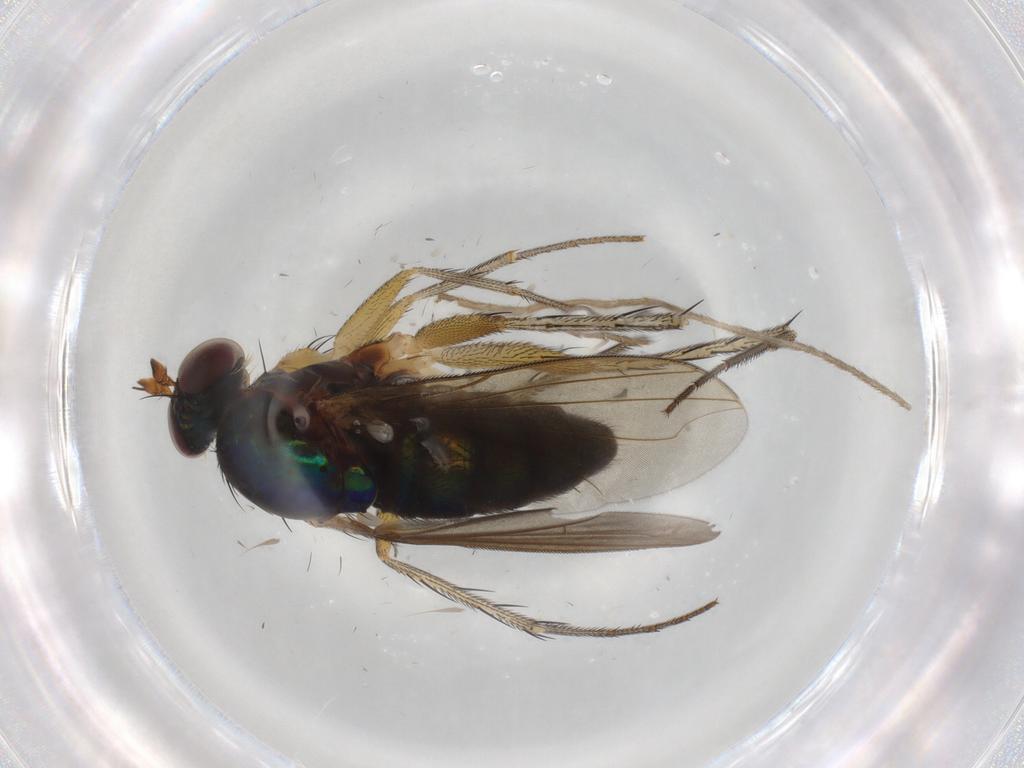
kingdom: Animalia
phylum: Arthropoda
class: Insecta
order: Diptera
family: Dolichopodidae
